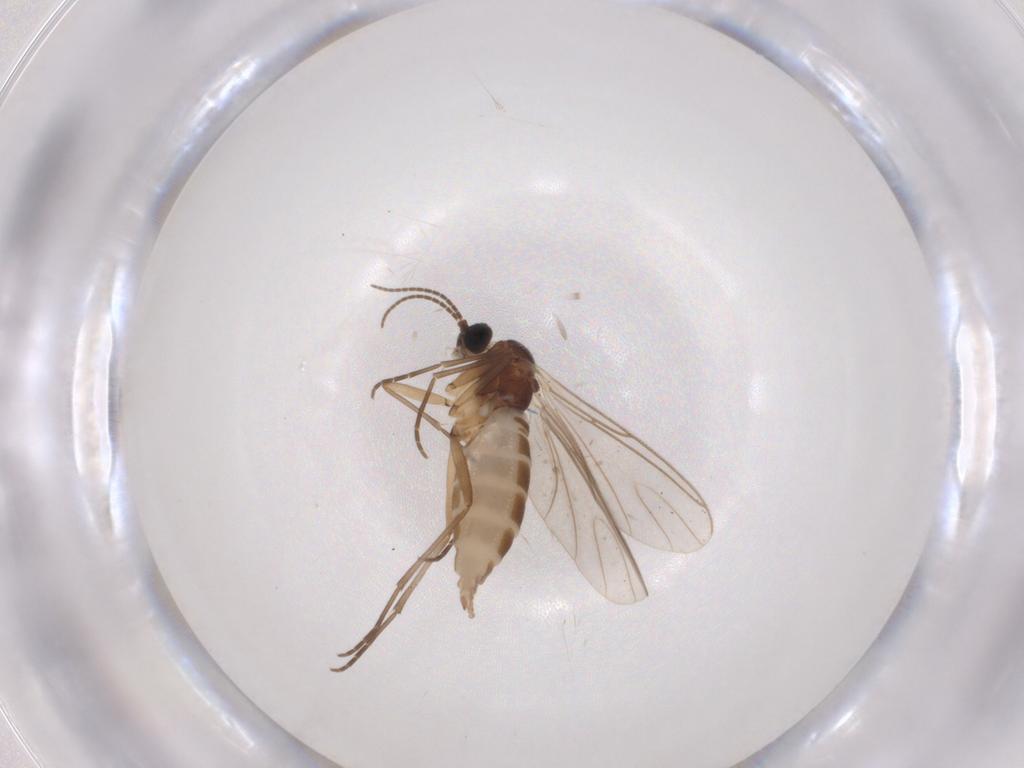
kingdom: Animalia
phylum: Arthropoda
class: Insecta
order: Diptera
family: Sciaridae
